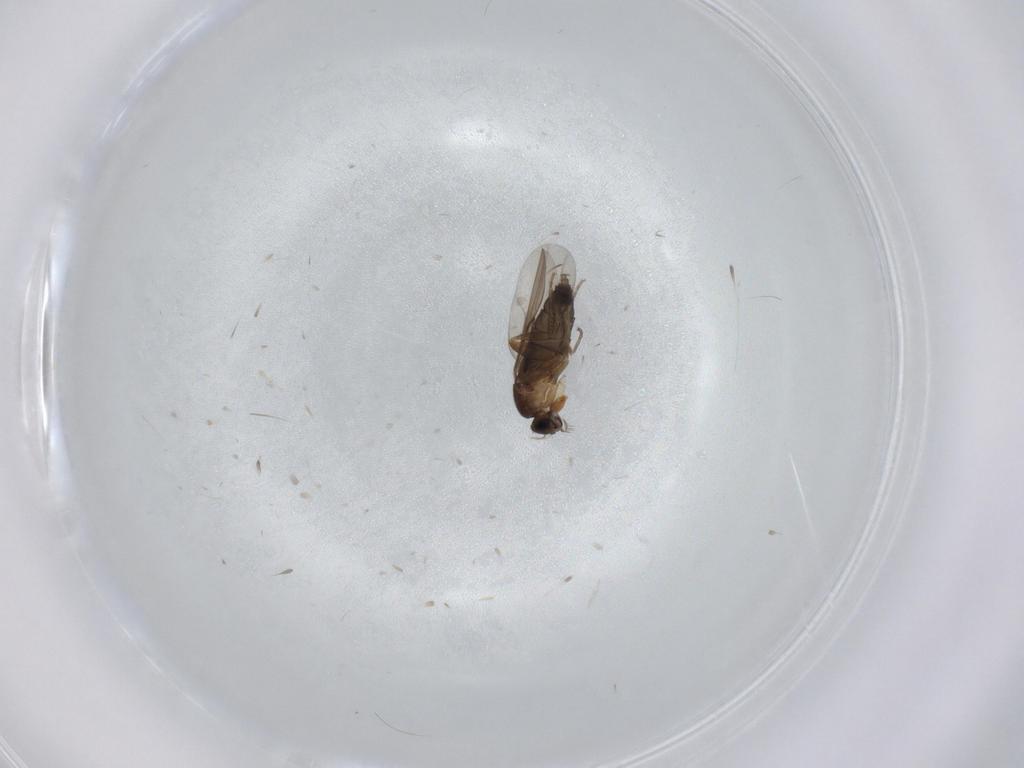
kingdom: Animalia
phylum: Arthropoda
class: Insecta
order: Diptera
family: Phoridae
